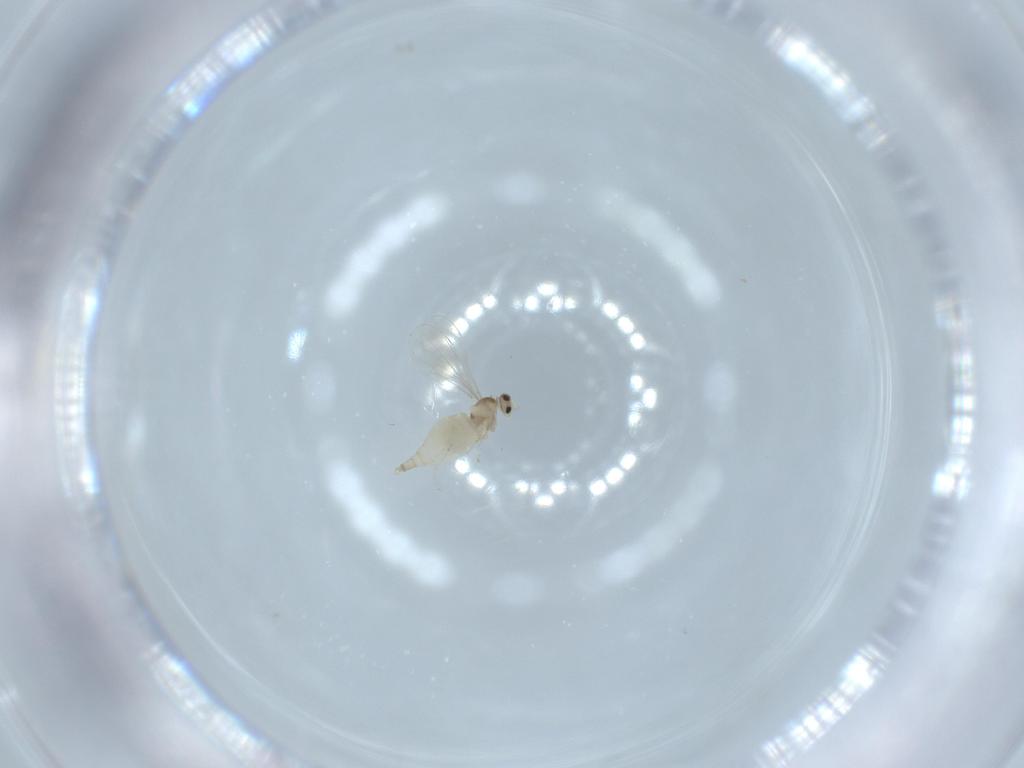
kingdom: Animalia
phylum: Arthropoda
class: Insecta
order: Diptera
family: Cecidomyiidae
